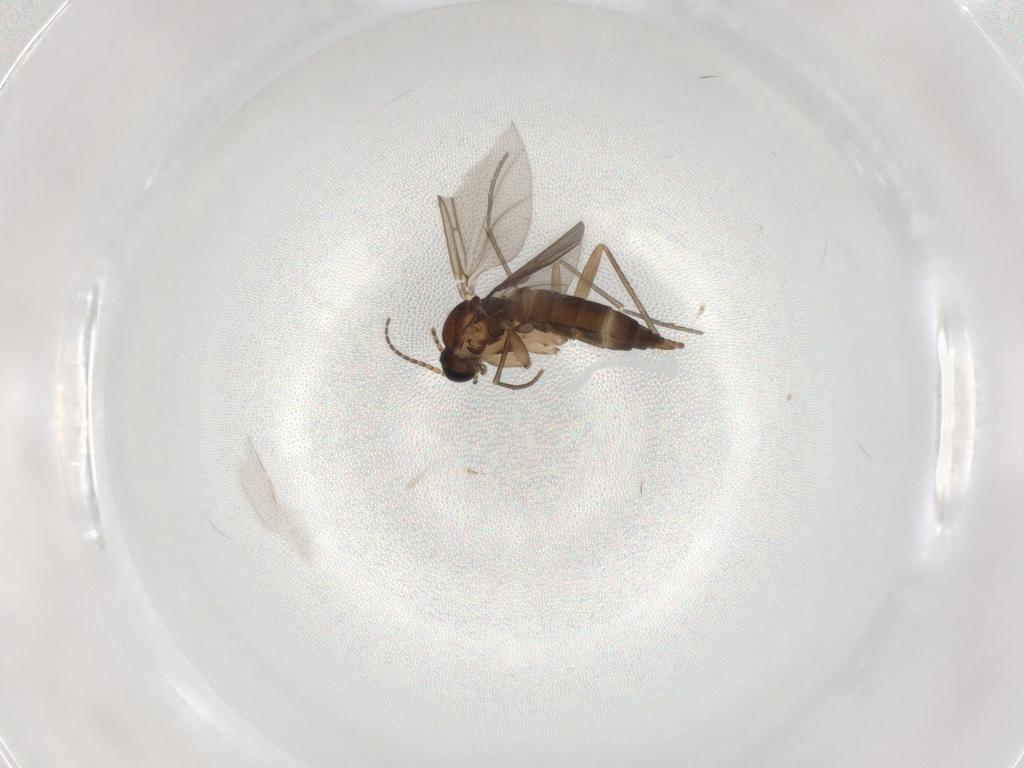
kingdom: Animalia
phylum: Arthropoda
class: Insecta
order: Diptera
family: Sciaridae
